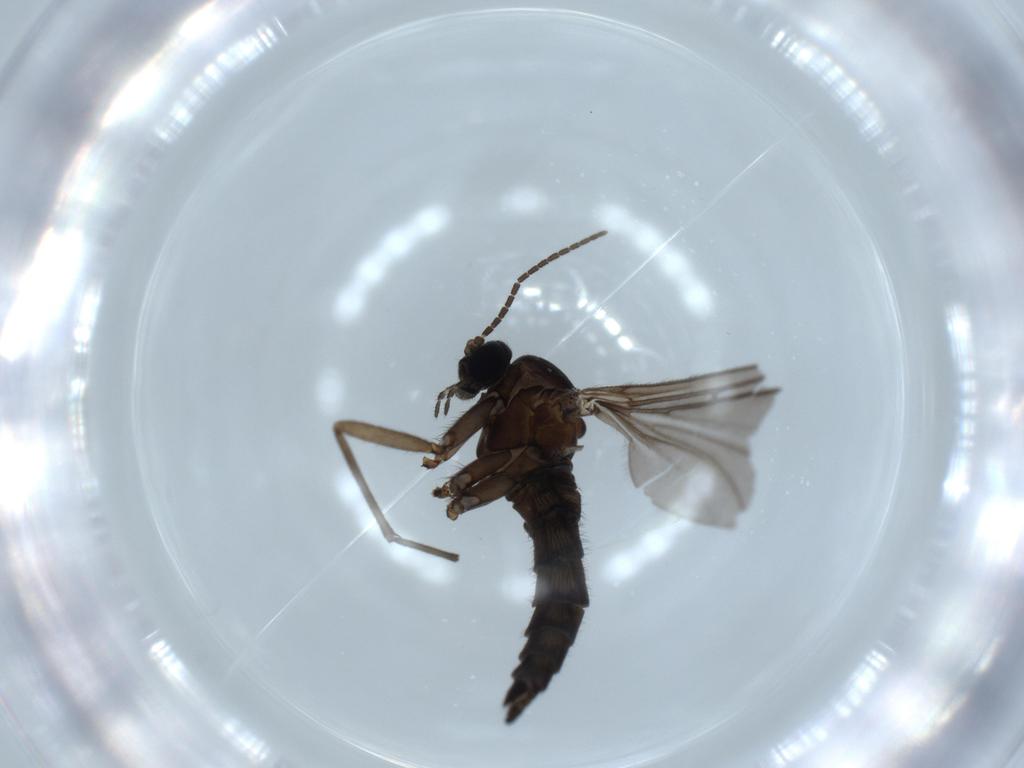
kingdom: Animalia
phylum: Arthropoda
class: Insecta
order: Diptera
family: Sciaridae
